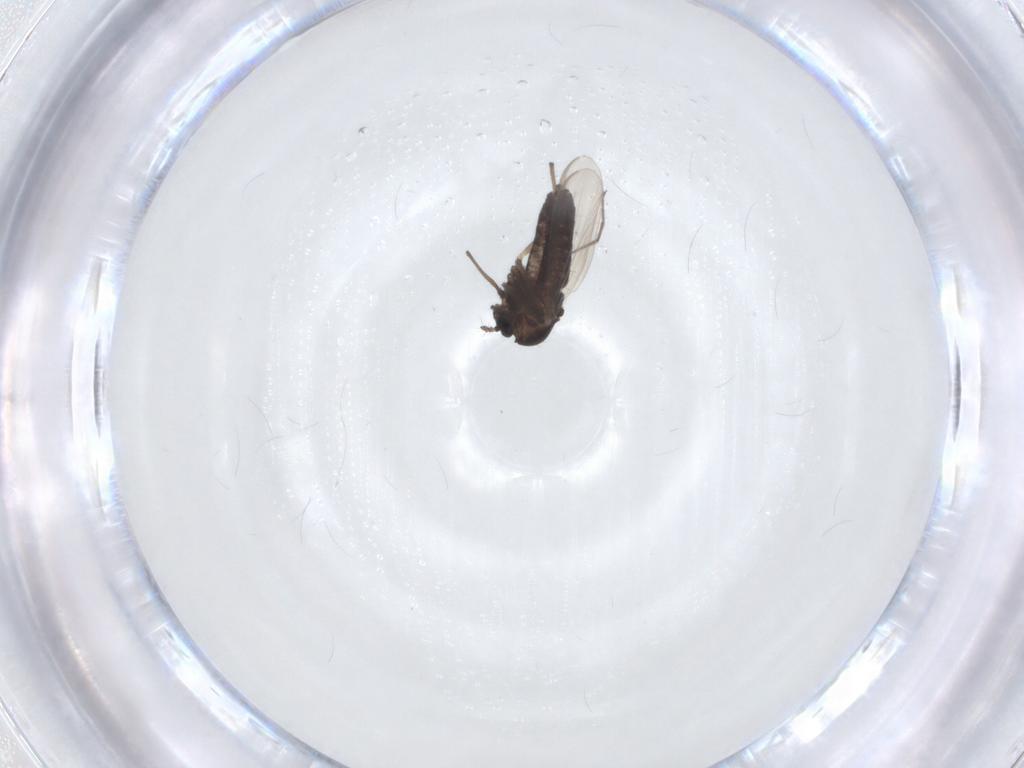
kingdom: Animalia
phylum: Arthropoda
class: Insecta
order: Diptera
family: Chironomidae
